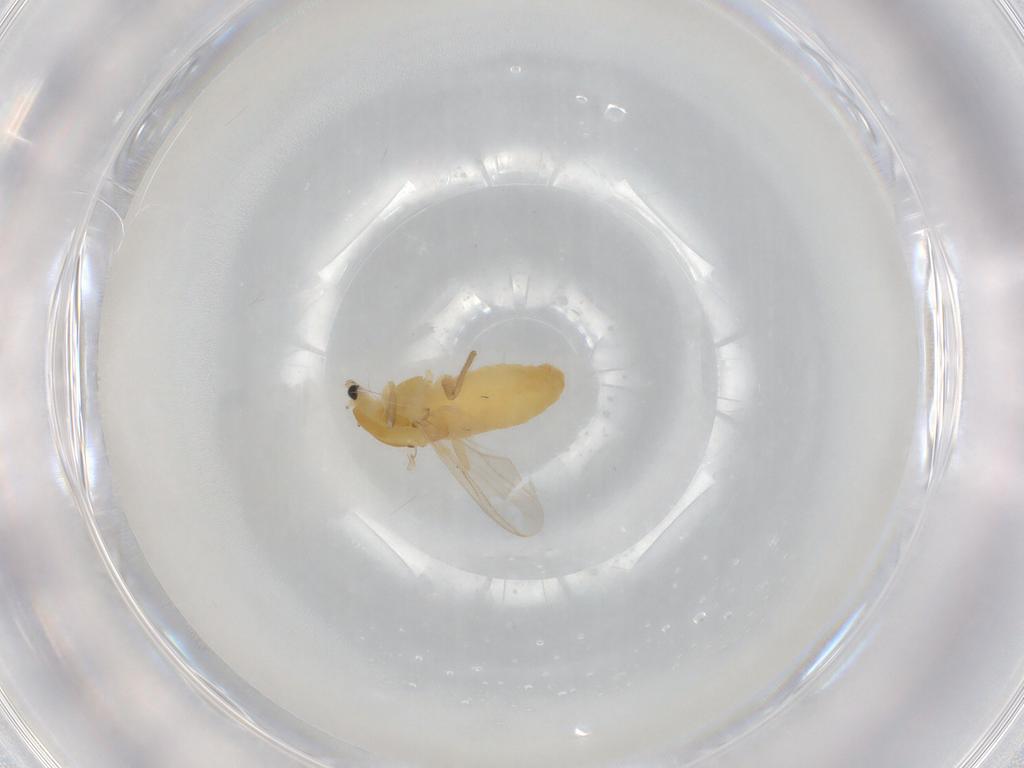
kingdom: Animalia
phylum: Arthropoda
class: Insecta
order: Diptera
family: Chironomidae
